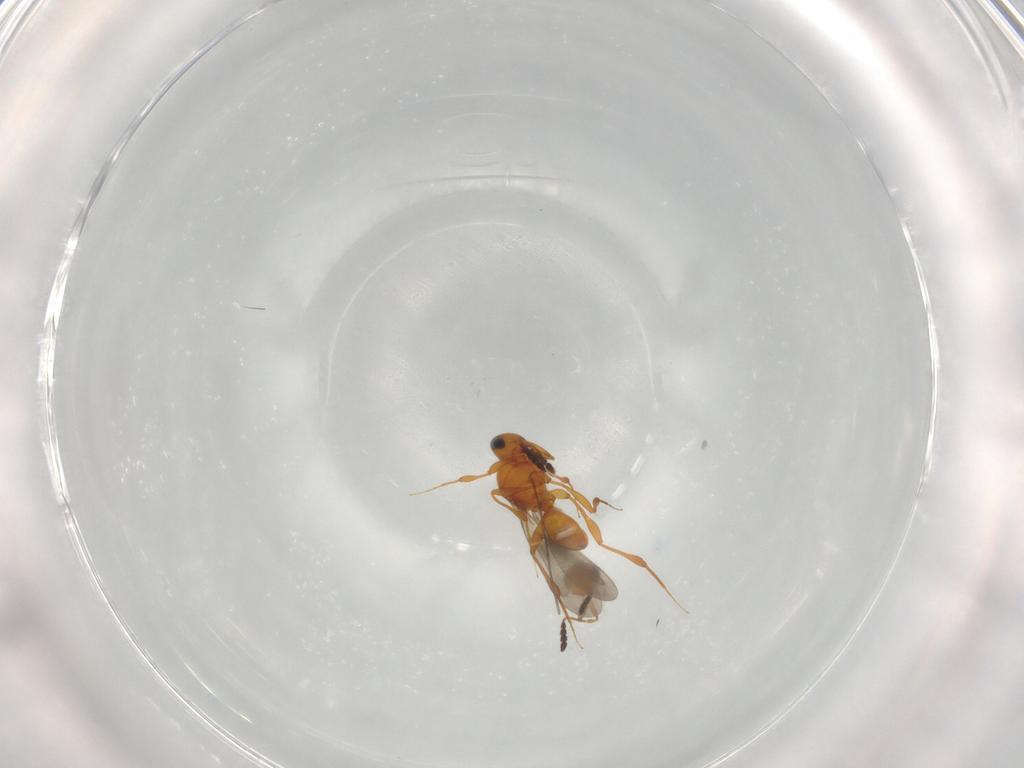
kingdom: Animalia
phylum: Arthropoda
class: Insecta
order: Hymenoptera
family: Platygastridae
